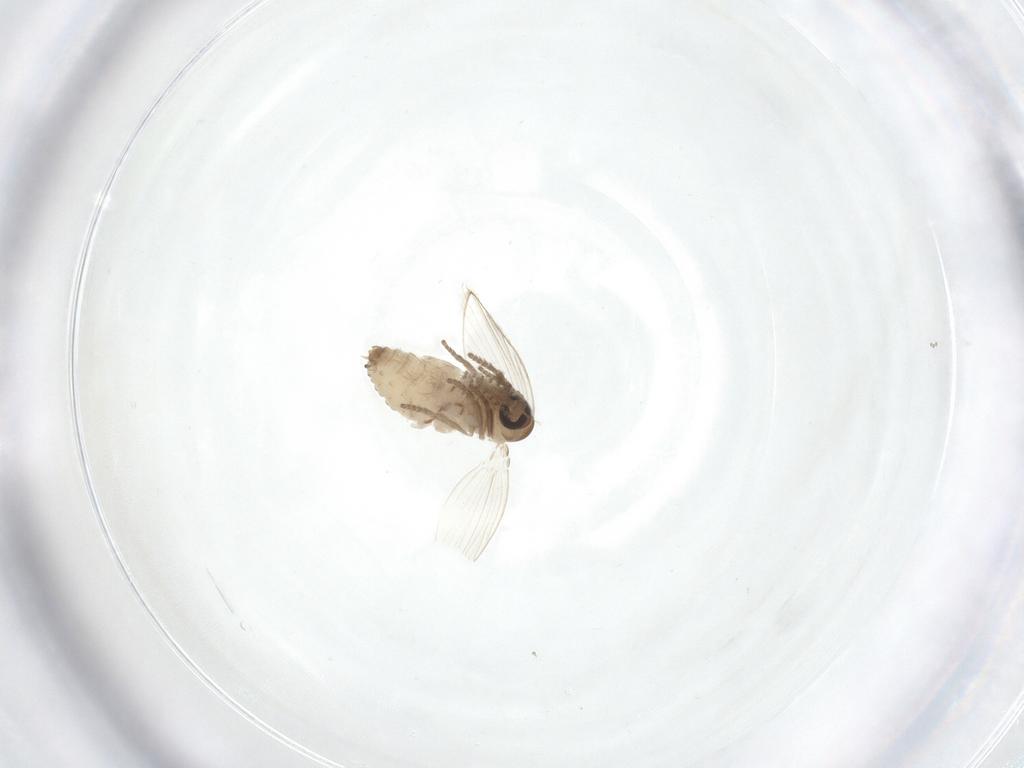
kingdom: Animalia
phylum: Arthropoda
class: Insecta
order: Diptera
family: Psychodidae
